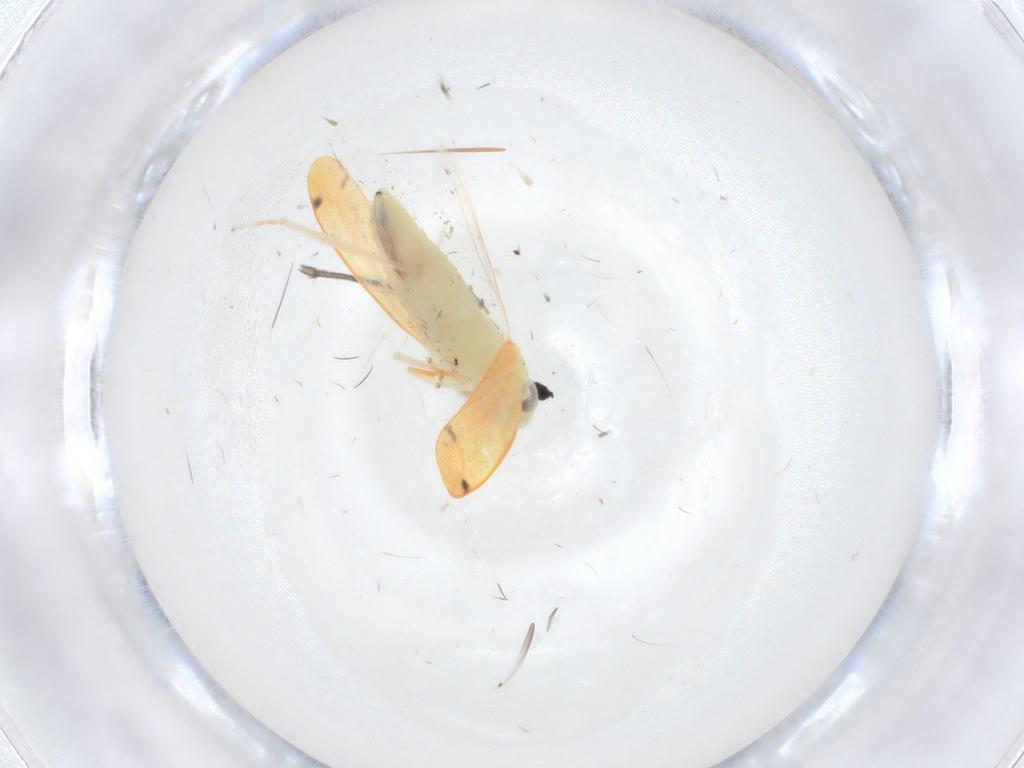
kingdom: Animalia
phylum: Arthropoda
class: Insecta
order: Hemiptera
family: Cicadellidae
